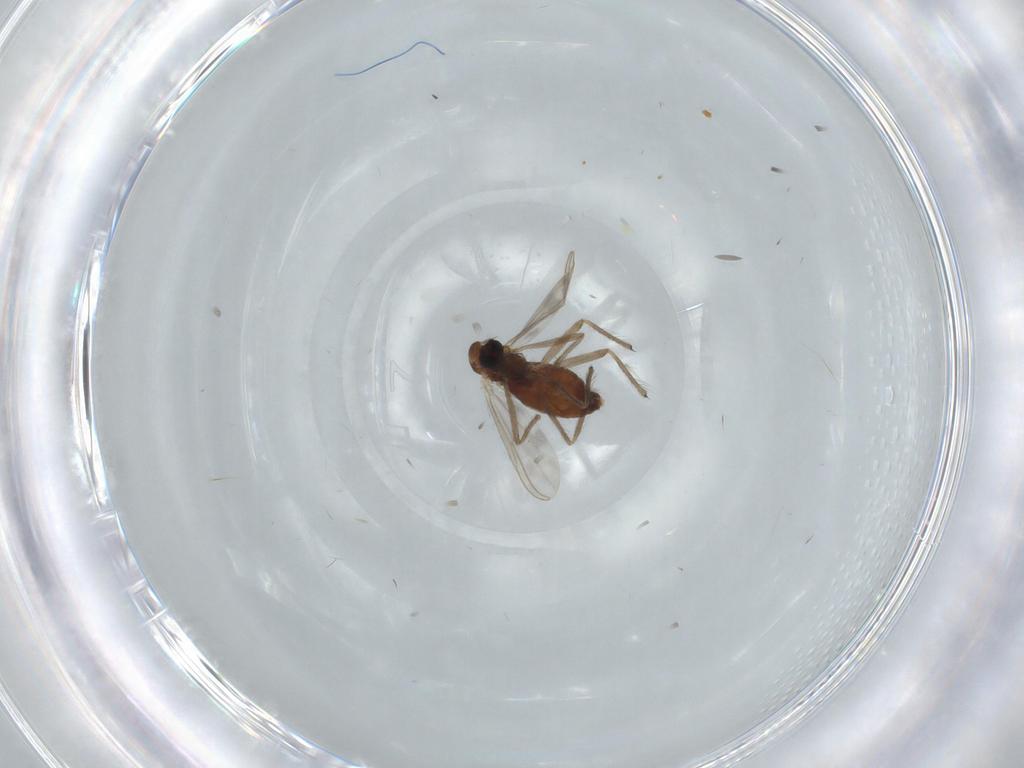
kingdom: Animalia
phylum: Arthropoda
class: Insecta
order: Diptera
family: Chironomidae
